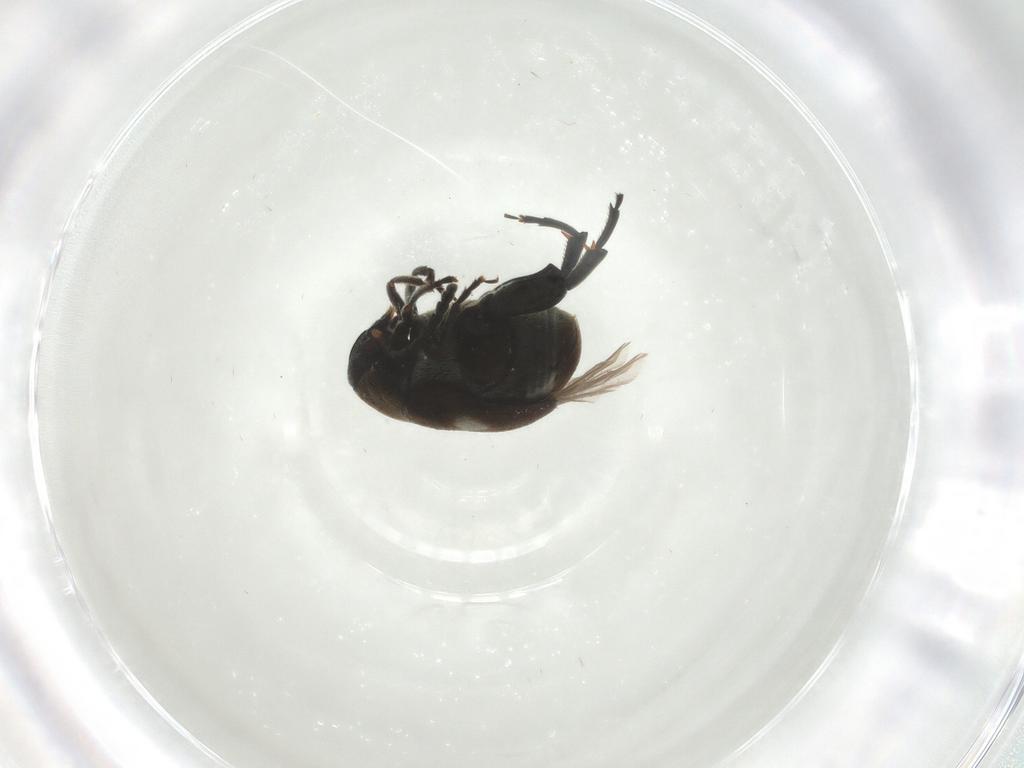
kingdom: Animalia
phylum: Arthropoda
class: Insecta
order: Coleoptera
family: Chrysomelidae
